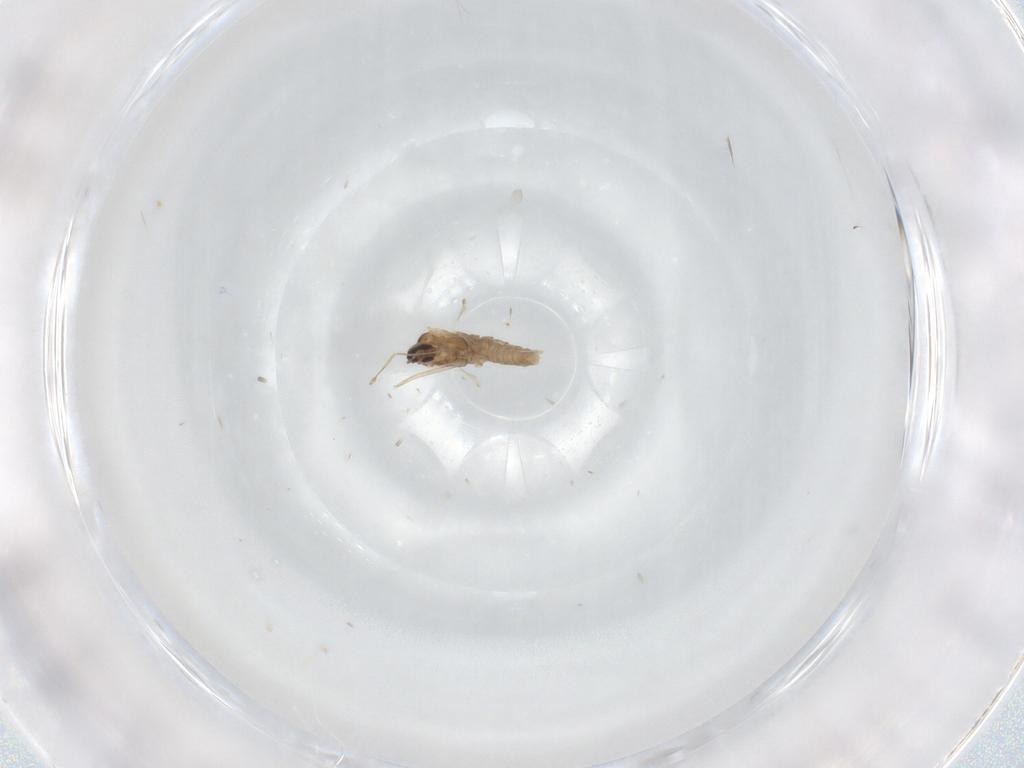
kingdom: Animalia
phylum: Arthropoda
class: Insecta
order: Diptera
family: Cecidomyiidae
